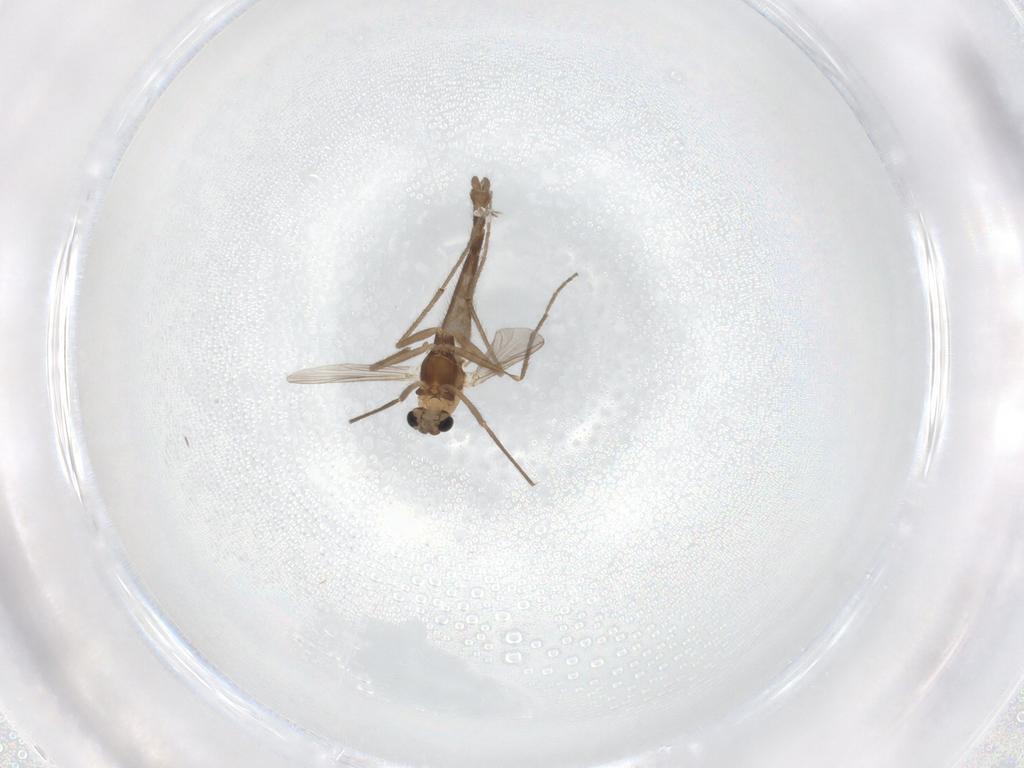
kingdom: Animalia
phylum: Arthropoda
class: Insecta
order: Diptera
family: Chironomidae
